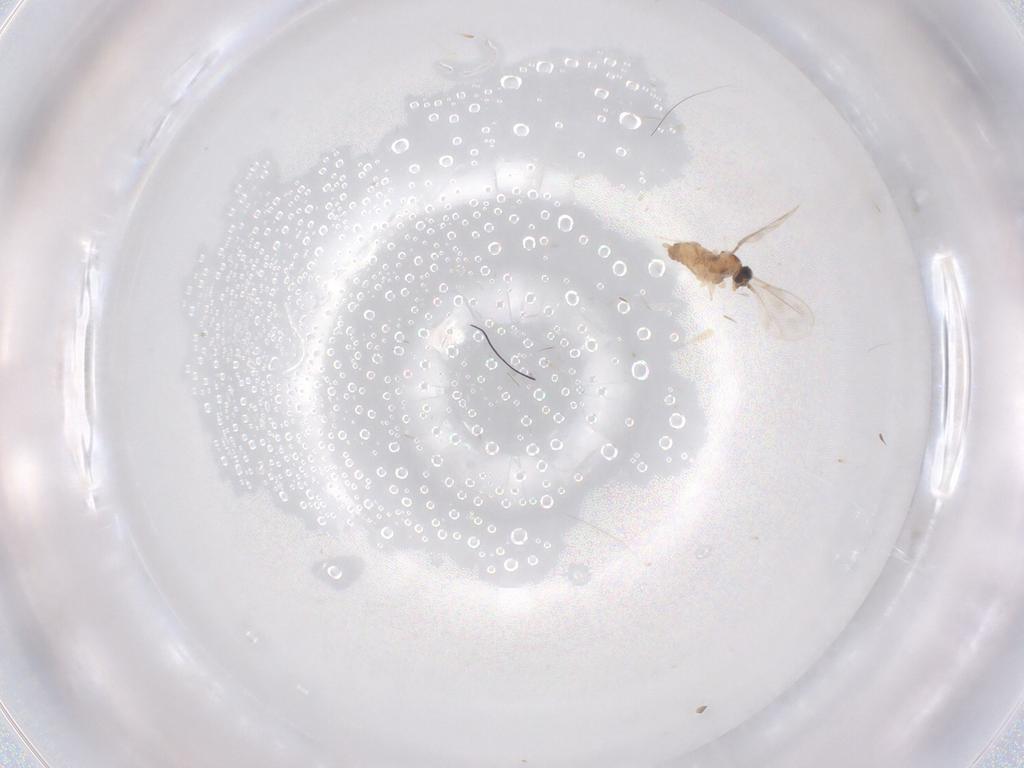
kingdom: Animalia
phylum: Arthropoda
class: Insecta
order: Diptera
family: Cecidomyiidae
